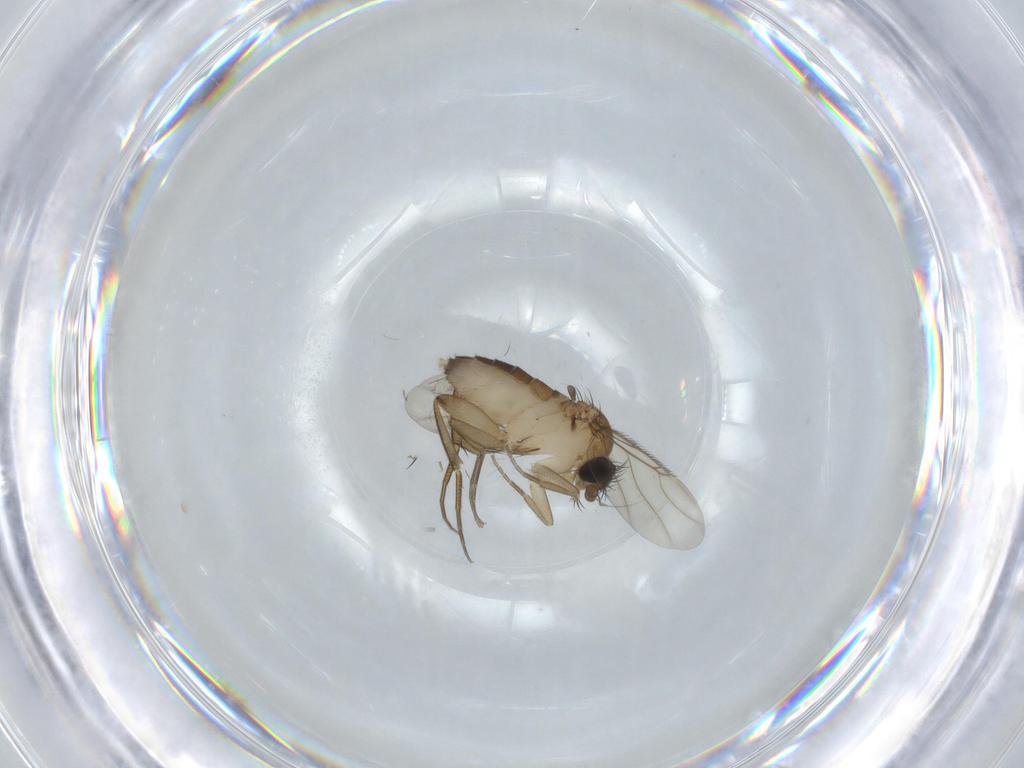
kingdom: Animalia
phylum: Arthropoda
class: Insecta
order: Diptera
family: Phoridae
